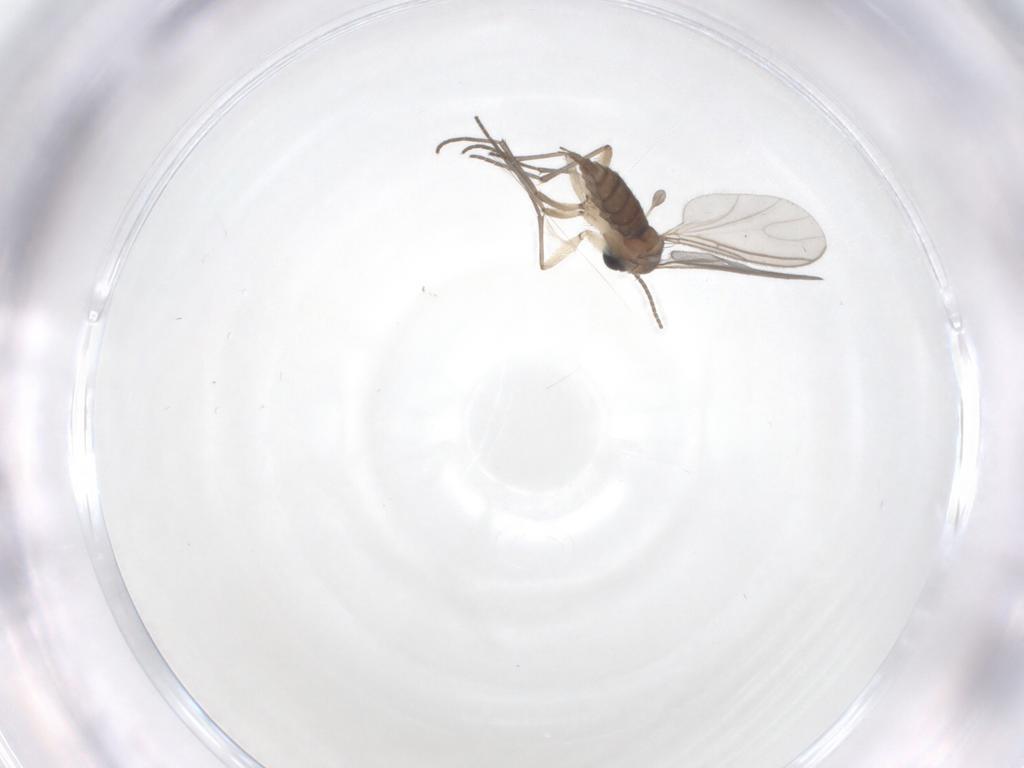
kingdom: Animalia
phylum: Arthropoda
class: Insecta
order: Diptera
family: Sciaridae
